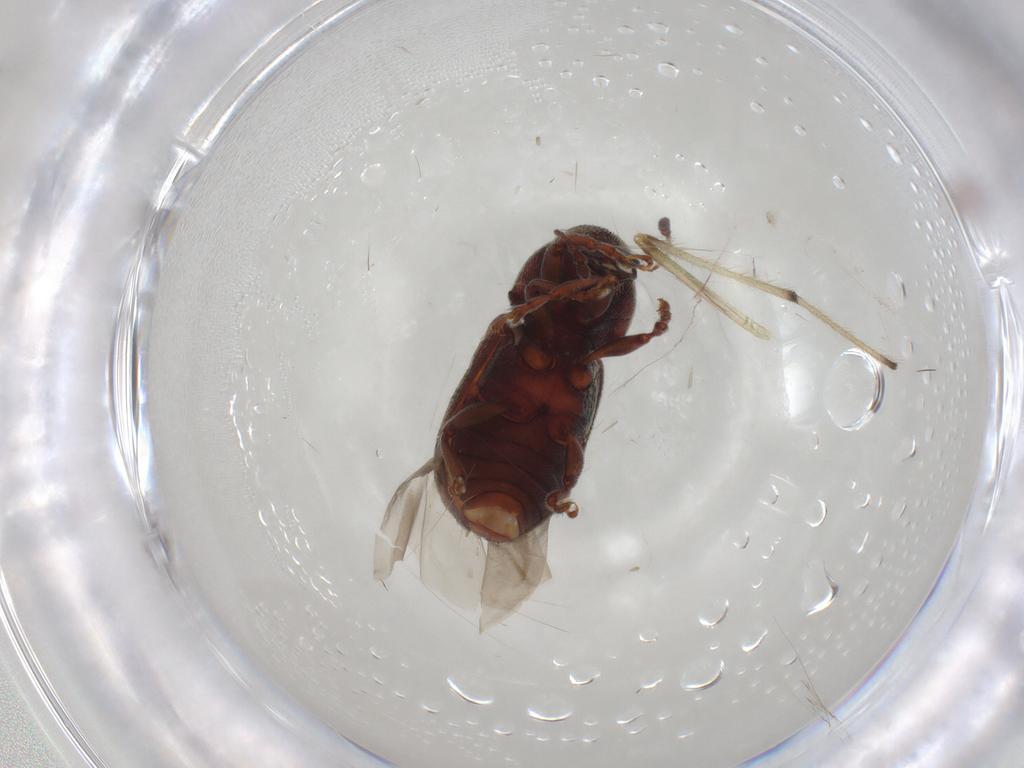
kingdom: Animalia
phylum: Arthropoda
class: Insecta
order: Coleoptera
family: Anthribidae
